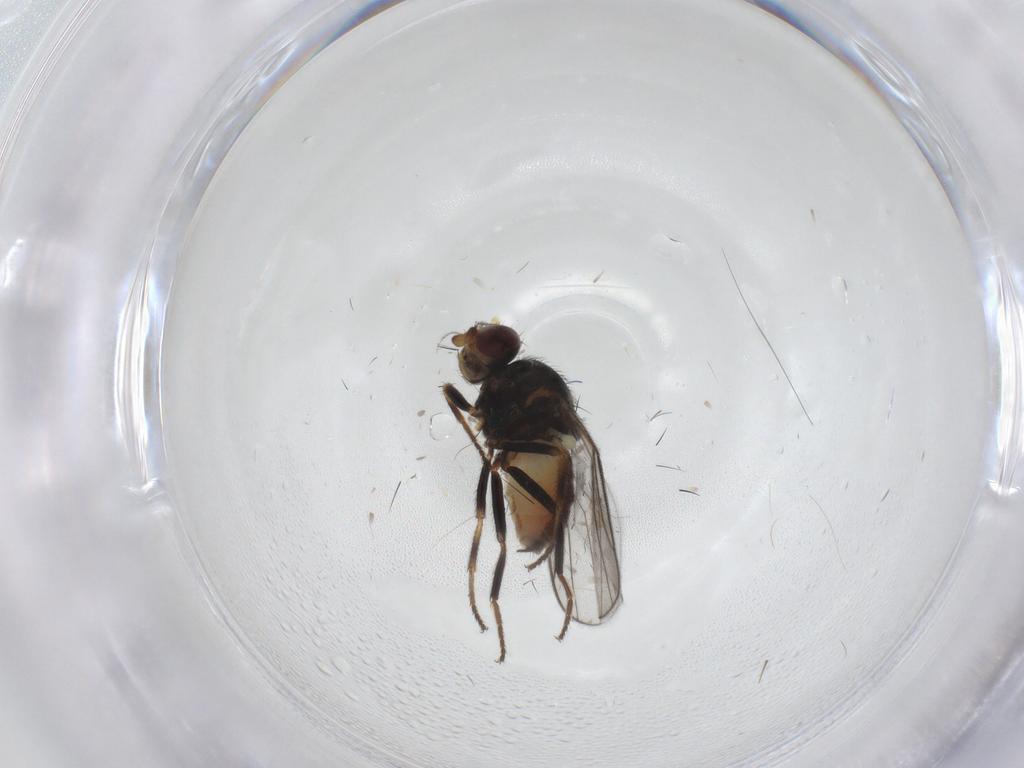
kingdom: Animalia
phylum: Arthropoda
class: Insecta
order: Diptera
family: Chloropidae
